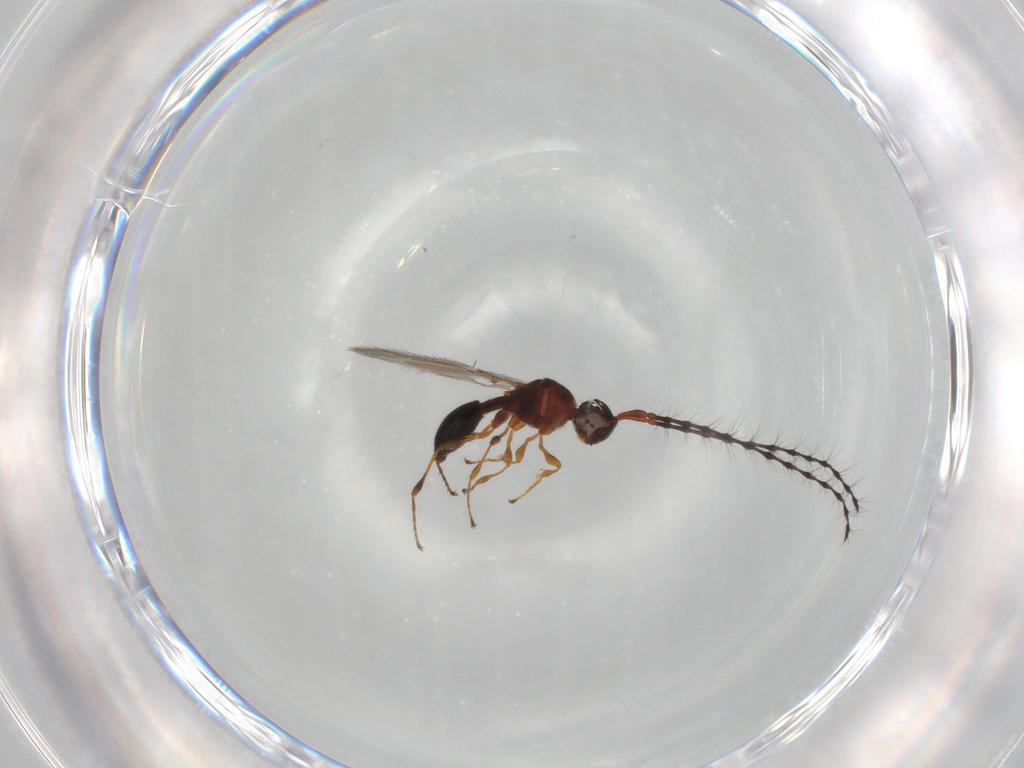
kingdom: Animalia
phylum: Arthropoda
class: Insecta
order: Hymenoptera
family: Diapriidae
